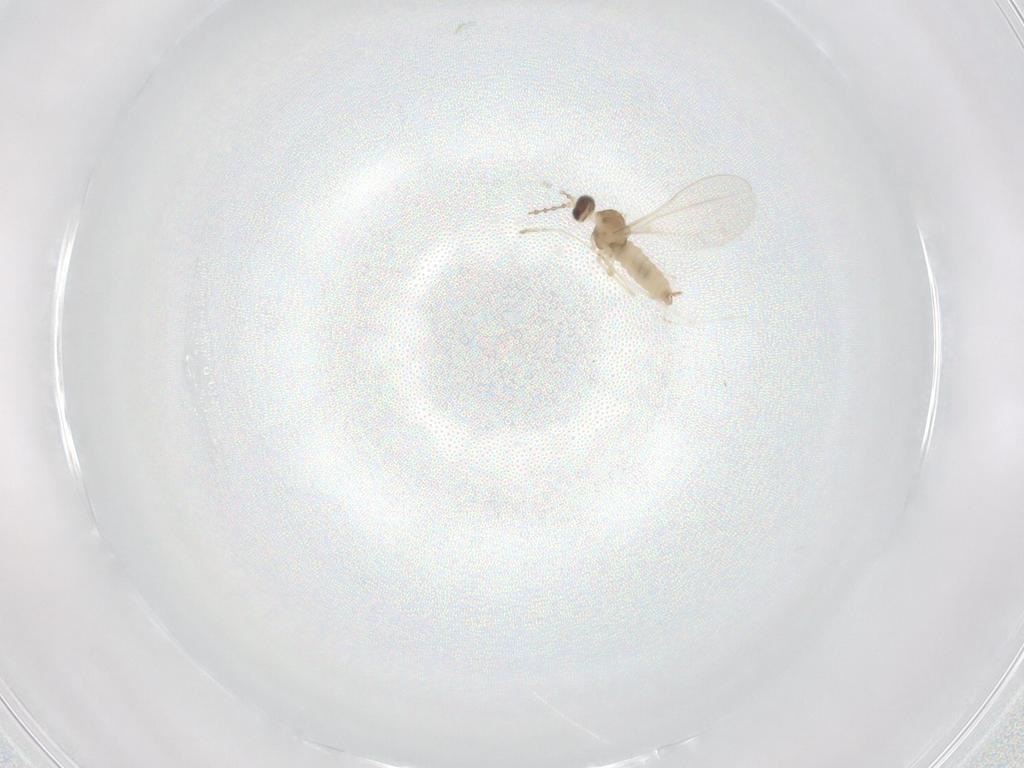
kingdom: Animalia
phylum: Arthropoda
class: Insecta
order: Diptera
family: Cecidomyiidae
